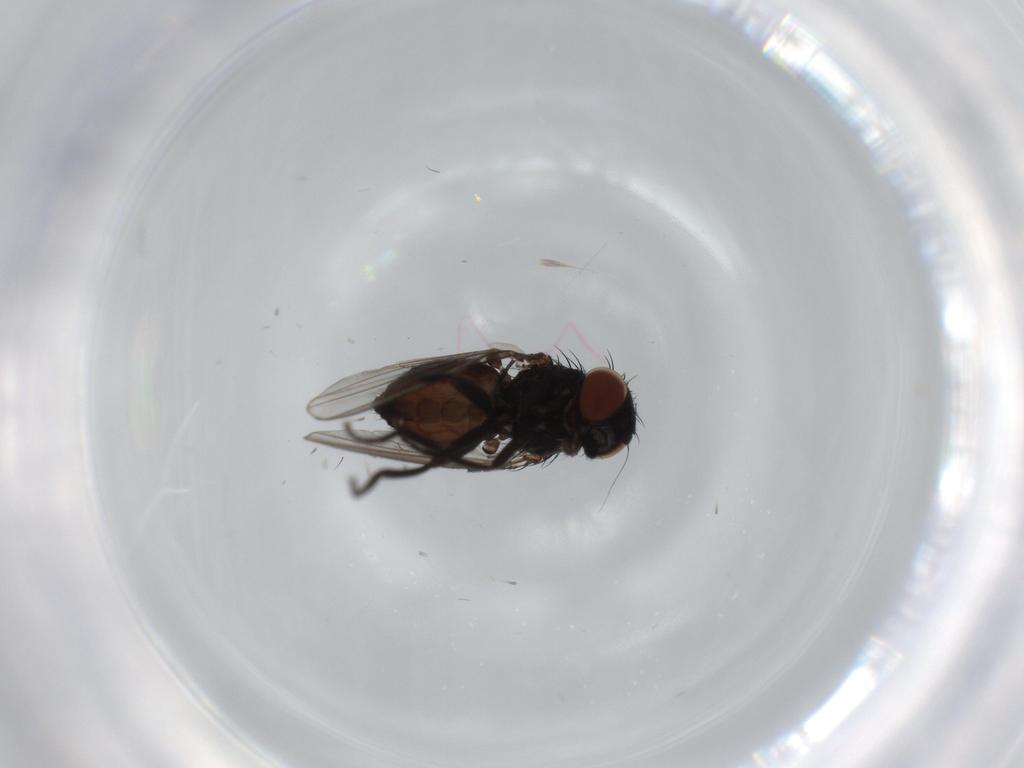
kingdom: Animalia
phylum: Arthropoda
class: Insecta
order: Diptera
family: Milichiidae
